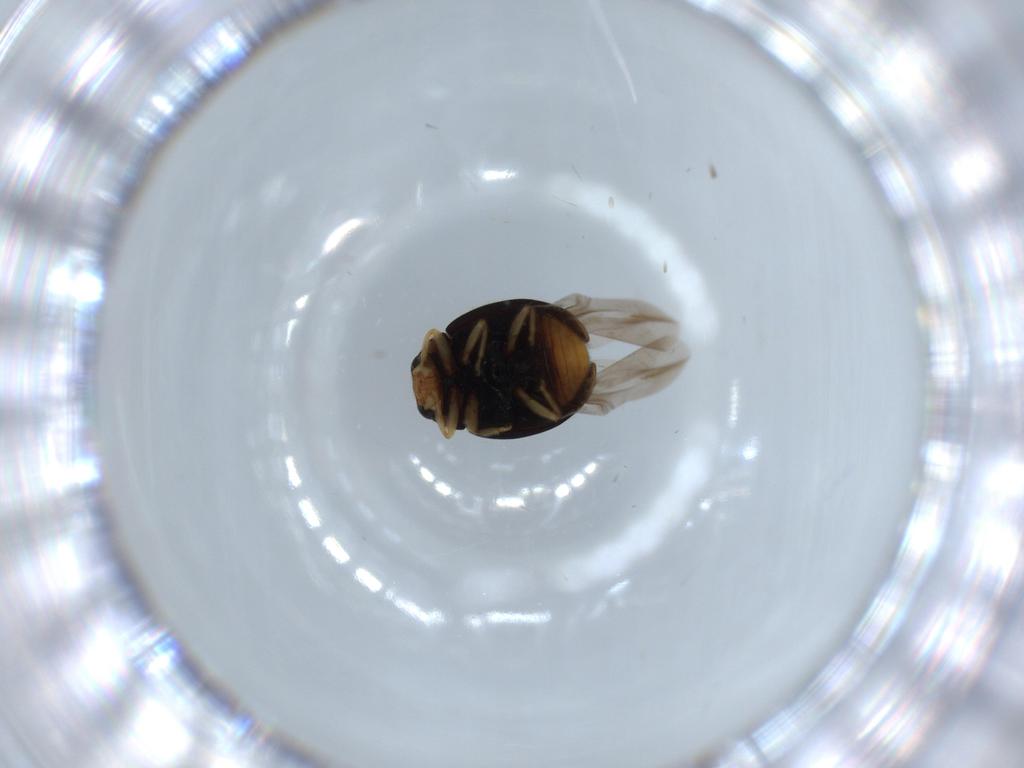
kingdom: Animalia
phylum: Arthropoda
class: Insecta
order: Coleoptera
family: Chrysomelidae
